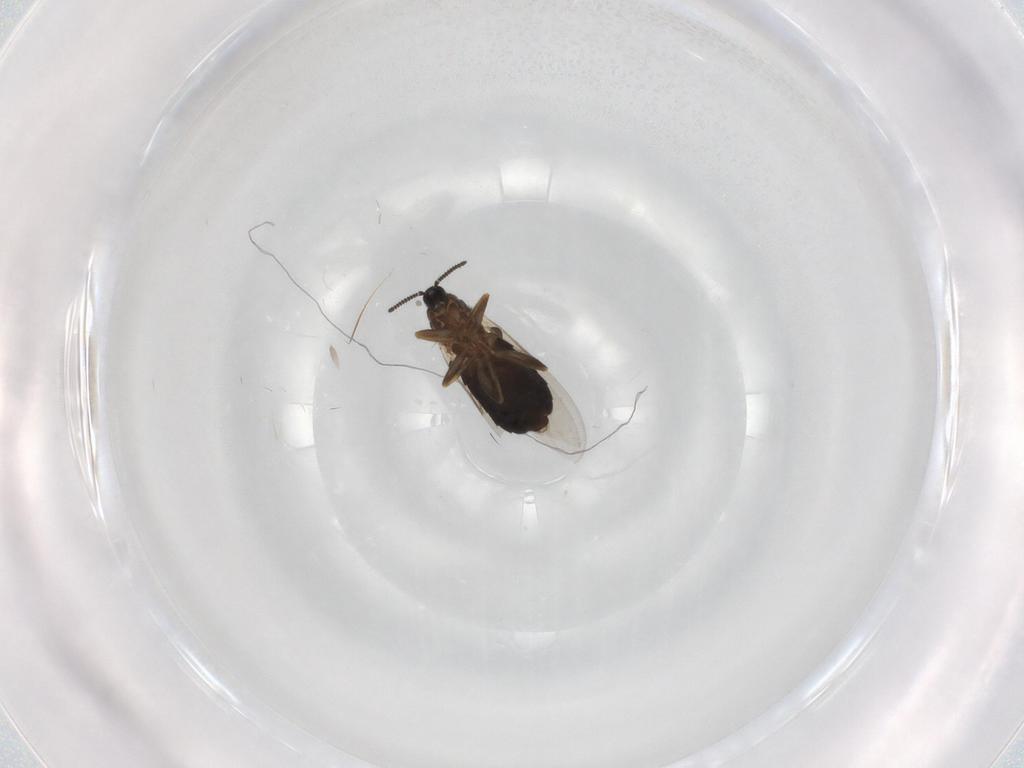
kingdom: Animalia
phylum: Arthropoda
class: Insecta
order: Diptera
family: Scatopsidae
